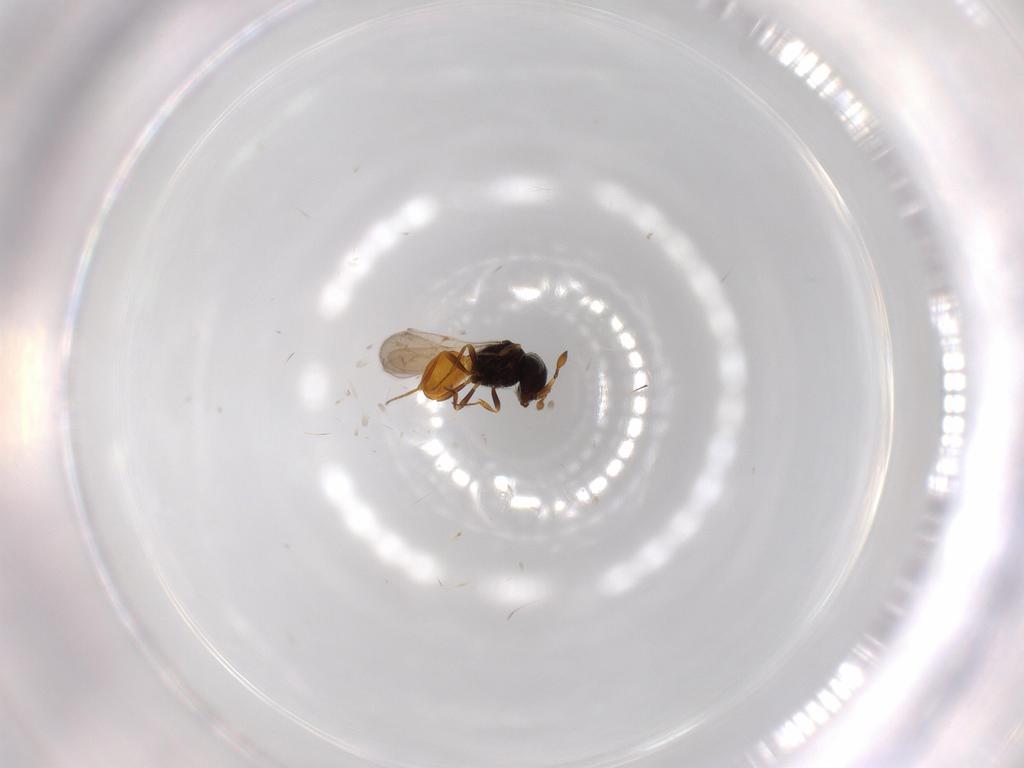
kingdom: Animalia
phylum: Arthropoda
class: Insecta
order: Hymenoptera
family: Scelionidae
